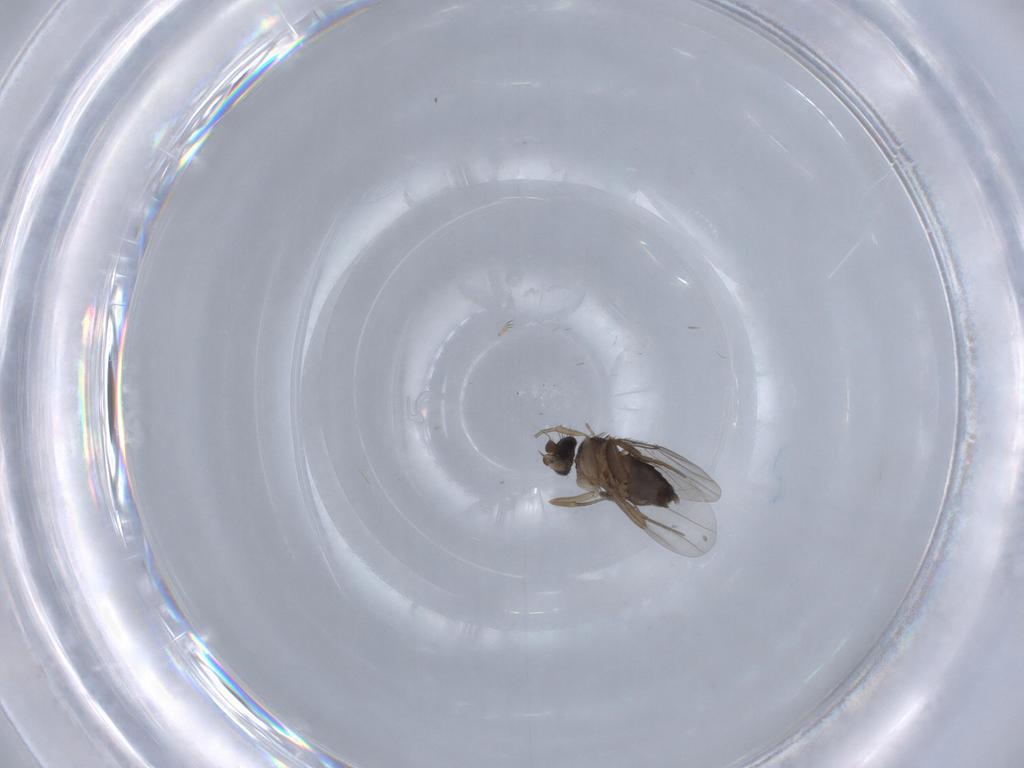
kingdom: Animalia
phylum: Arthropoda
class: Insecta
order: Diptera
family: Phoridae
